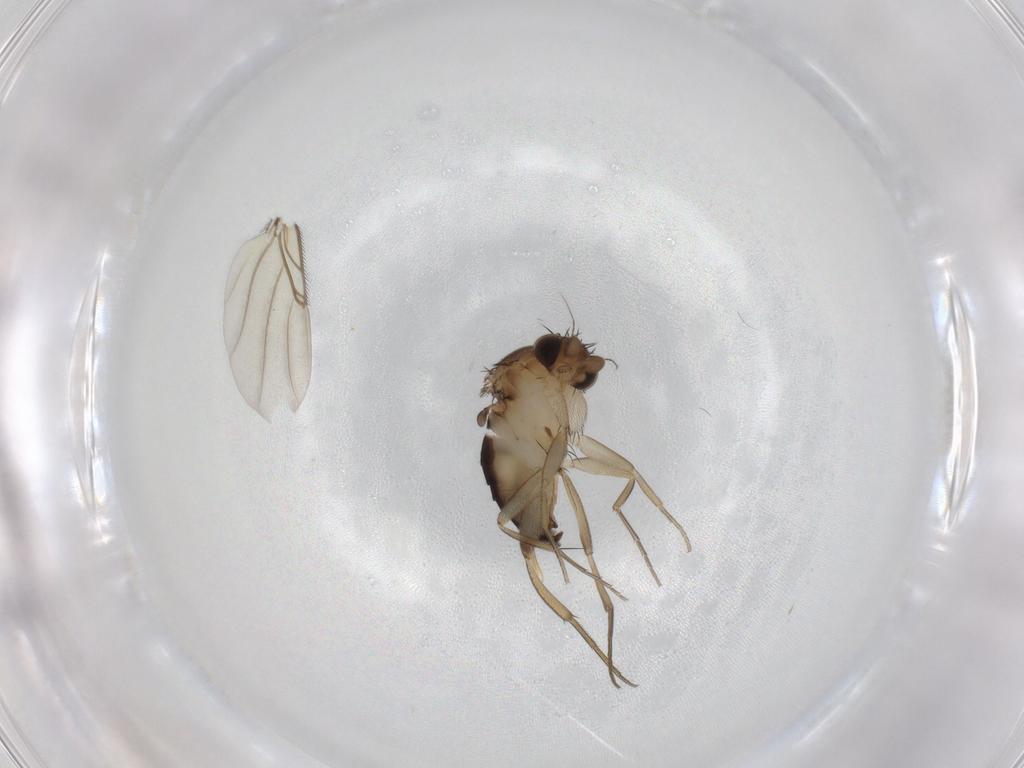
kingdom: Animalia
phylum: Arthropoda
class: Insecta
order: Diptera
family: Phoridae
